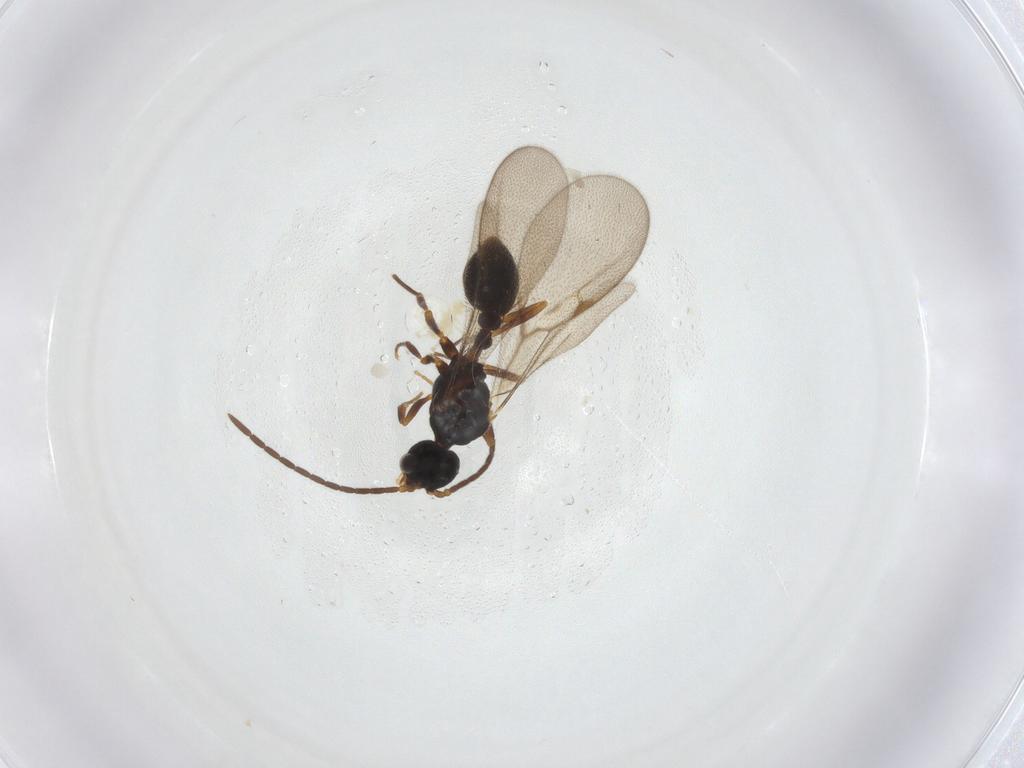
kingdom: Animalia
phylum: Arthropoda
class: Insecta
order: Hymenoptera
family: Formicidae
